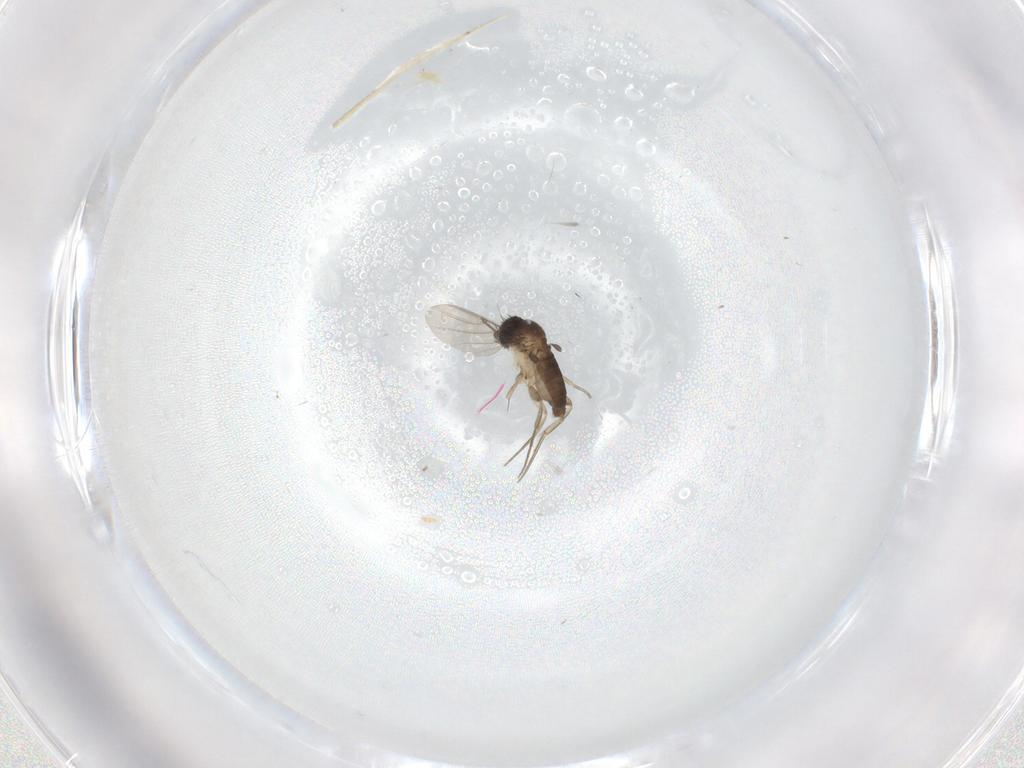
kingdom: Animalia
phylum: Arthropoda
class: Insecta
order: Diptera
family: Phoridae
